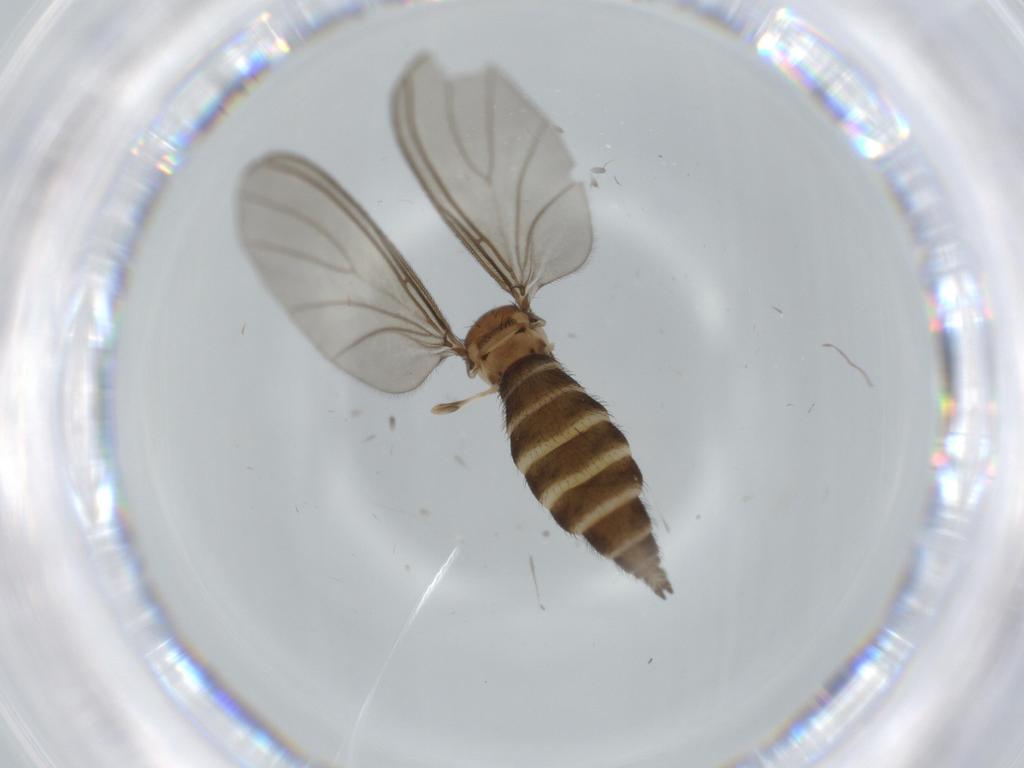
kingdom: Animalia
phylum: Arthropoda
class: Insecta
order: Diptera
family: Sciaridae
